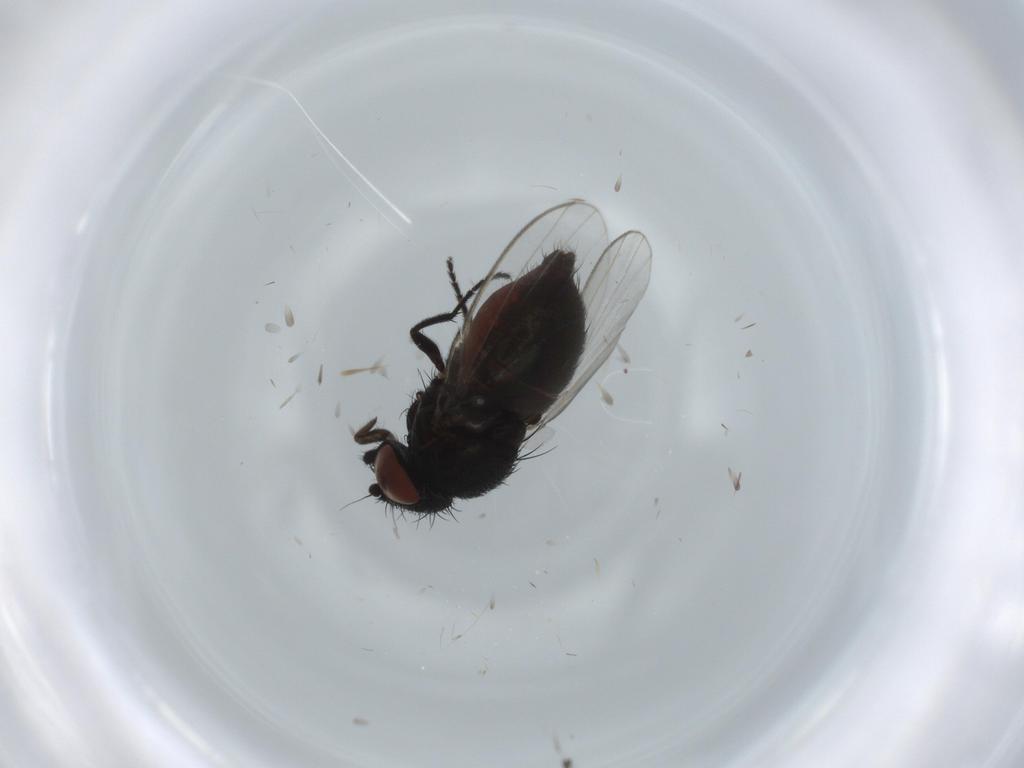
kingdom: Animalia
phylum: Arthropoda
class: Insecta
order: Diptera
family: Milichiidae
